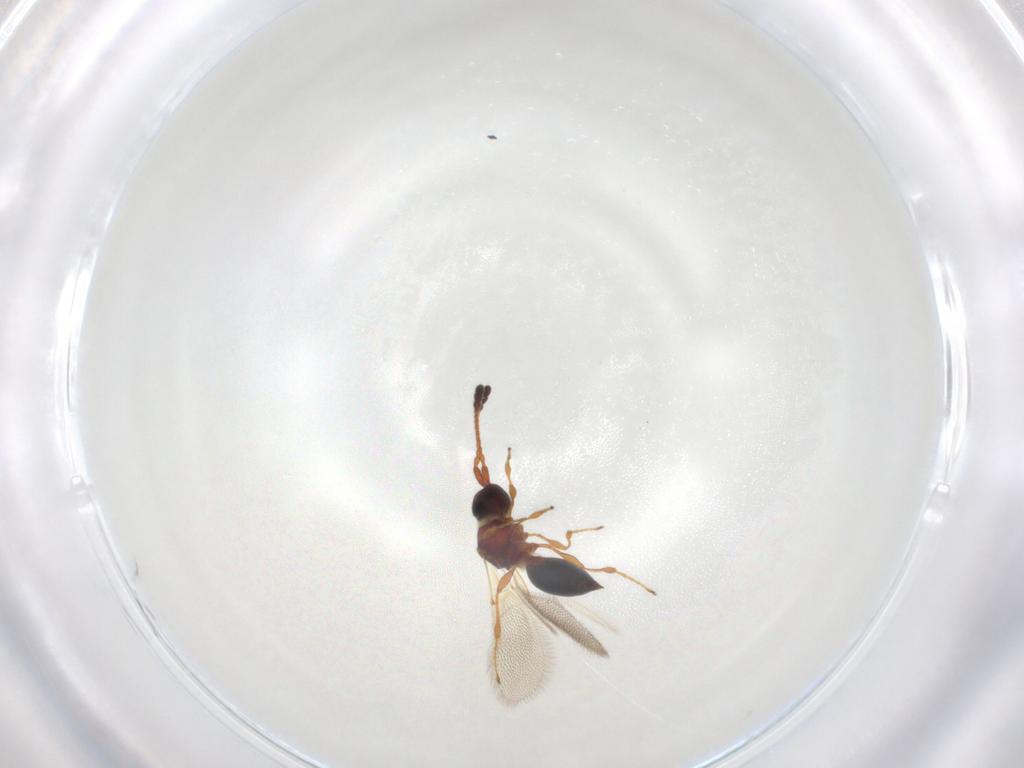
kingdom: Animalia
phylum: Arthropoda
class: Insecta
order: Hymenoptera
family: Diapriidae
